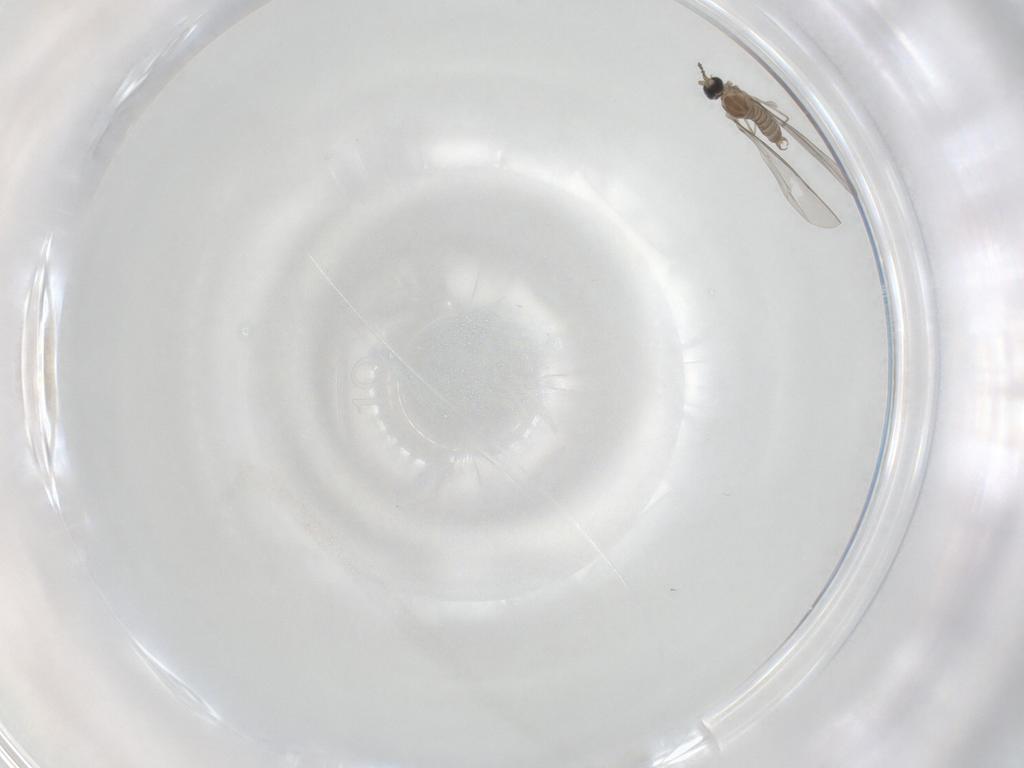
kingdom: Animalia
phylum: Arthropoda
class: Insecta
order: Diptera
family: Cecidomyiidae
